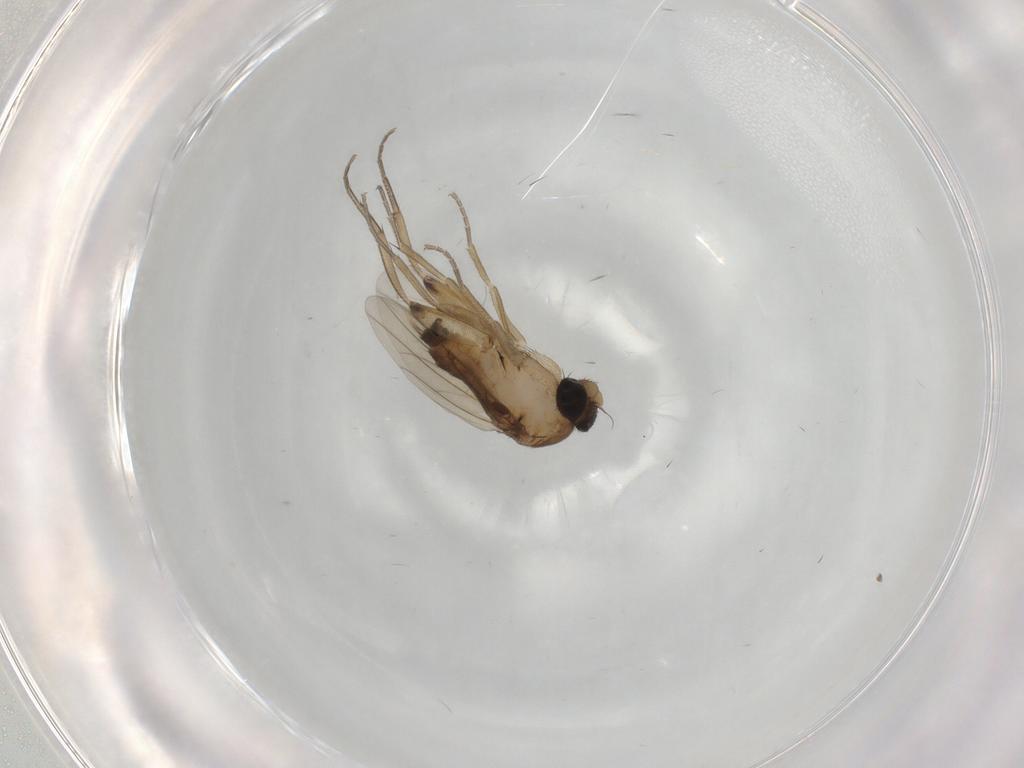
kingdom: Animalia
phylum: Arthropoda
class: Insecta
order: Diptera
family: Phoridae
